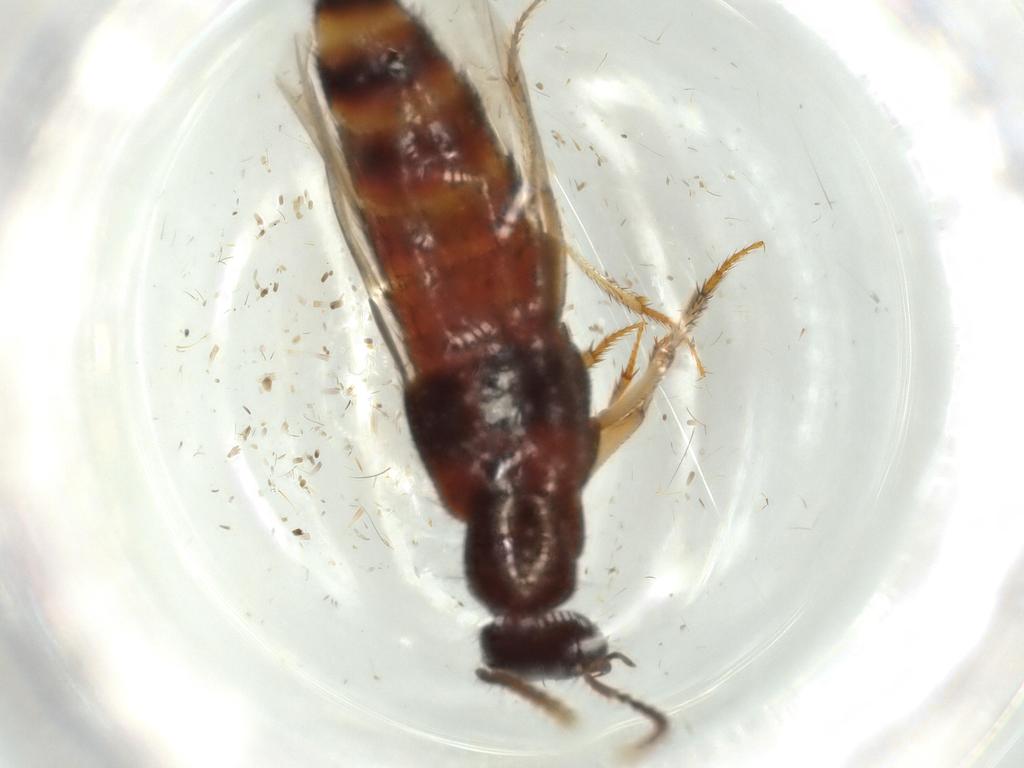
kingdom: Animalia
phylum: Arthropoda
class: Insecta
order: Coleoptera
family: Staphylinidae
